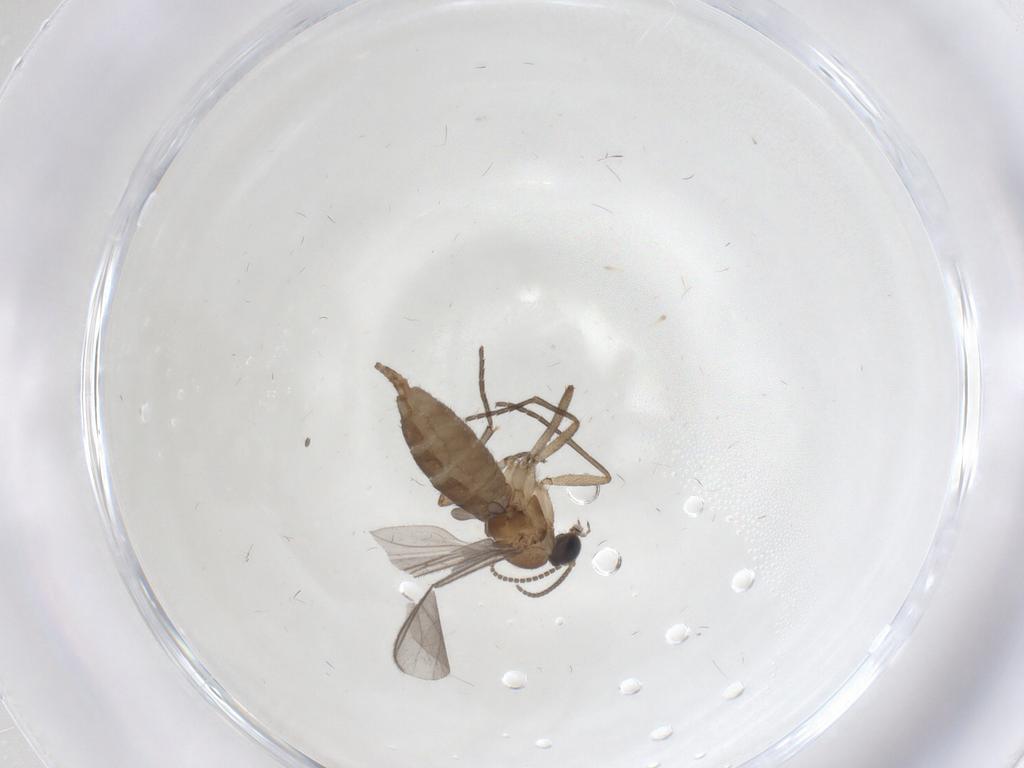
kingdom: Animalia
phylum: Arthropoda
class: Insecta
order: Diptera
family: Sciaridae
